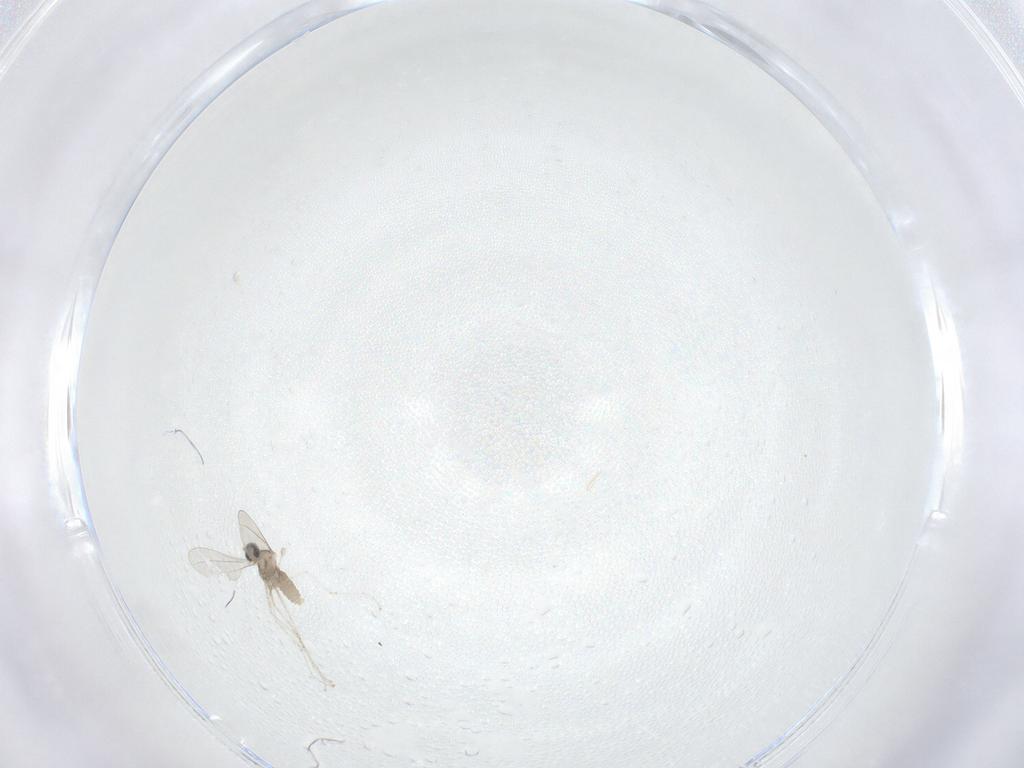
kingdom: Animalia
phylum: Arthropoda
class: Insecta
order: Diptera
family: Limoniidae
